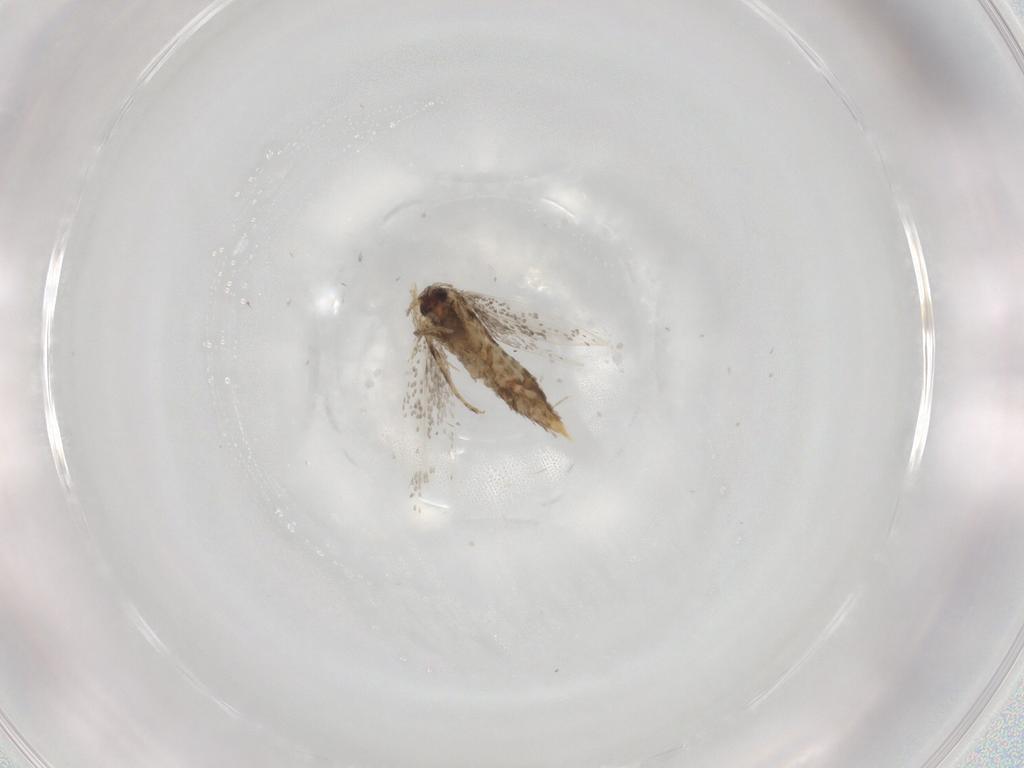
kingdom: Animalia
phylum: Arthropoda
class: Insecta
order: Lepidoptera
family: Tineidae
